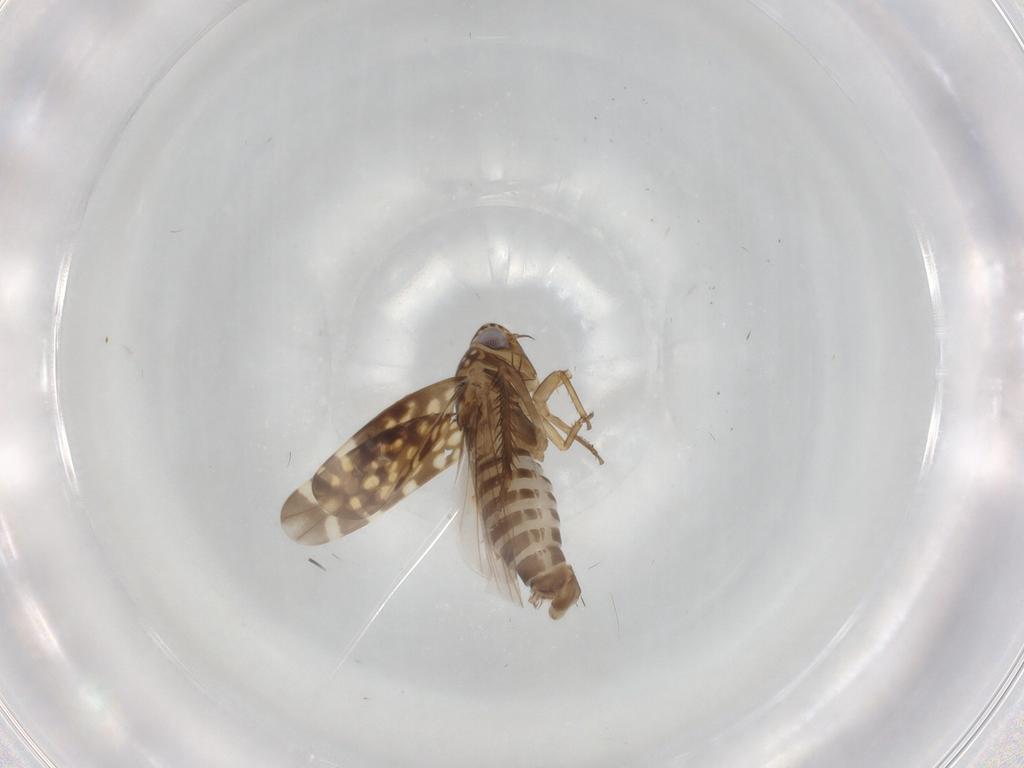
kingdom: Animalia
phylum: Arthropoda
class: Insecta
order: Hemiptera
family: Cicadellidae
